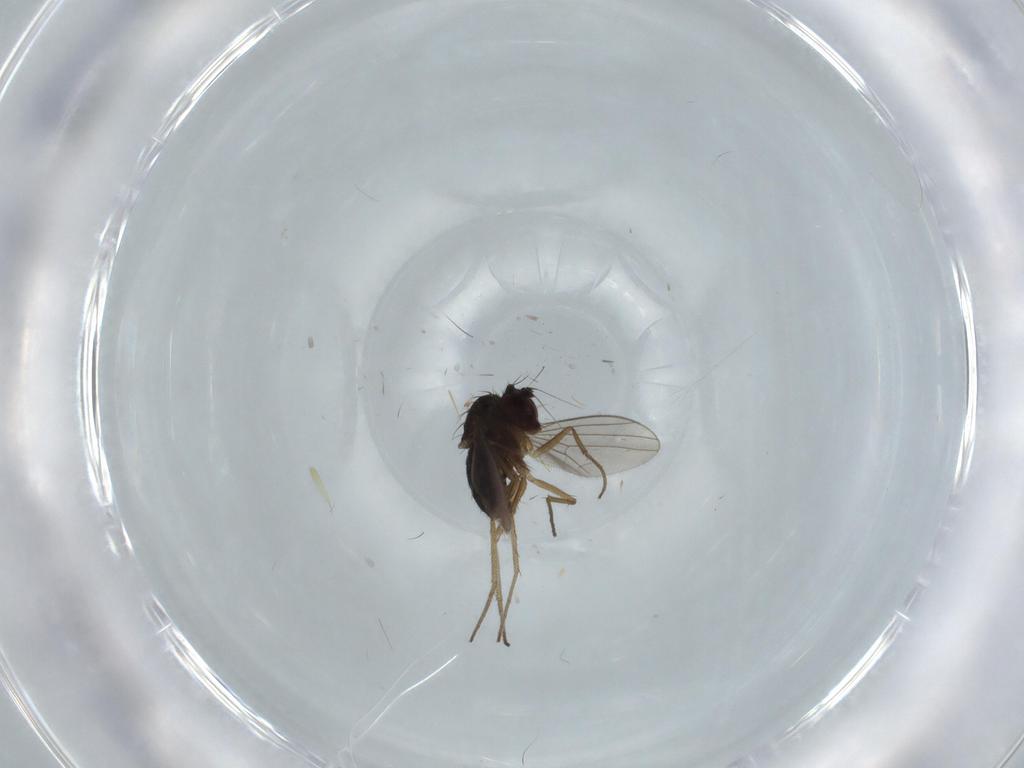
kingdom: Animalia
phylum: Arthropoda
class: Insecta
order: Diptera
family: Dolichopodidae
